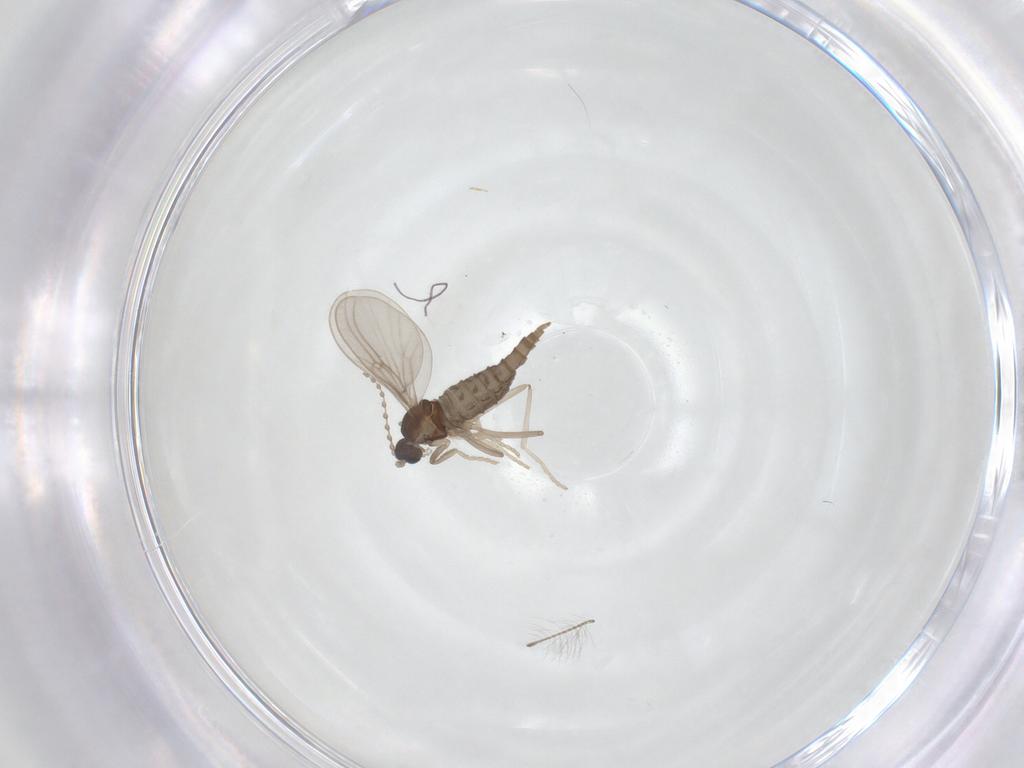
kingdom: Animalia
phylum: Arthropoda
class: Insecta
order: Diptera
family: Cecidomyiidae
